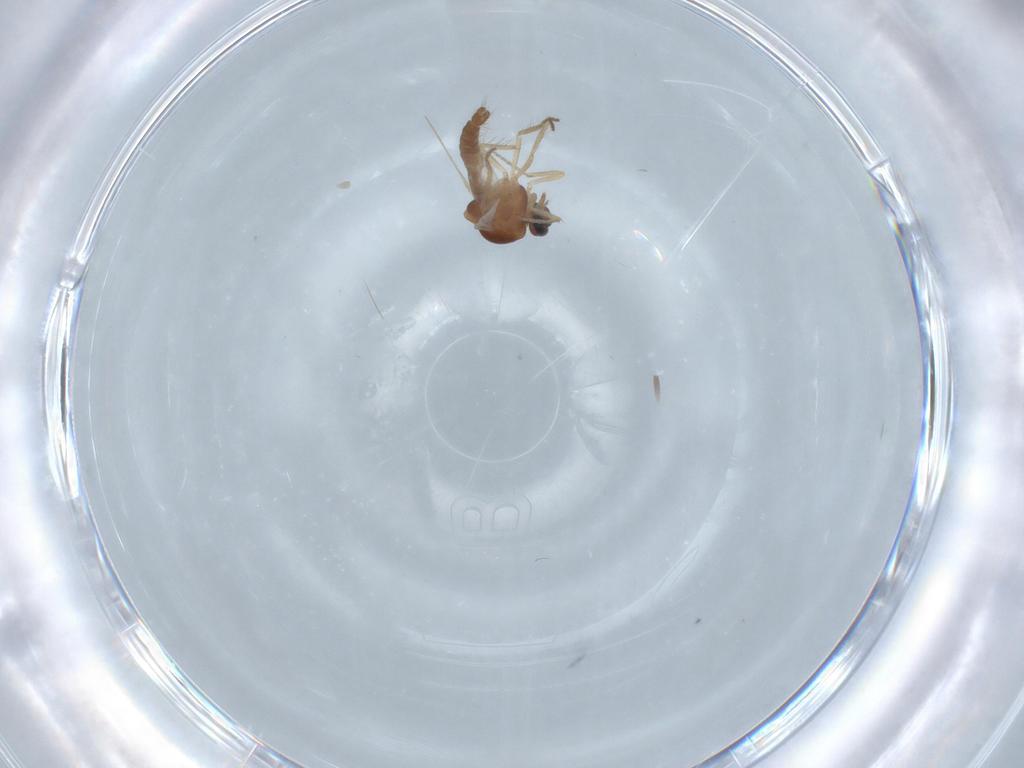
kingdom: Animalia
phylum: Arthropoda
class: Insecta
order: Diptera
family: Ceratopogonidae
